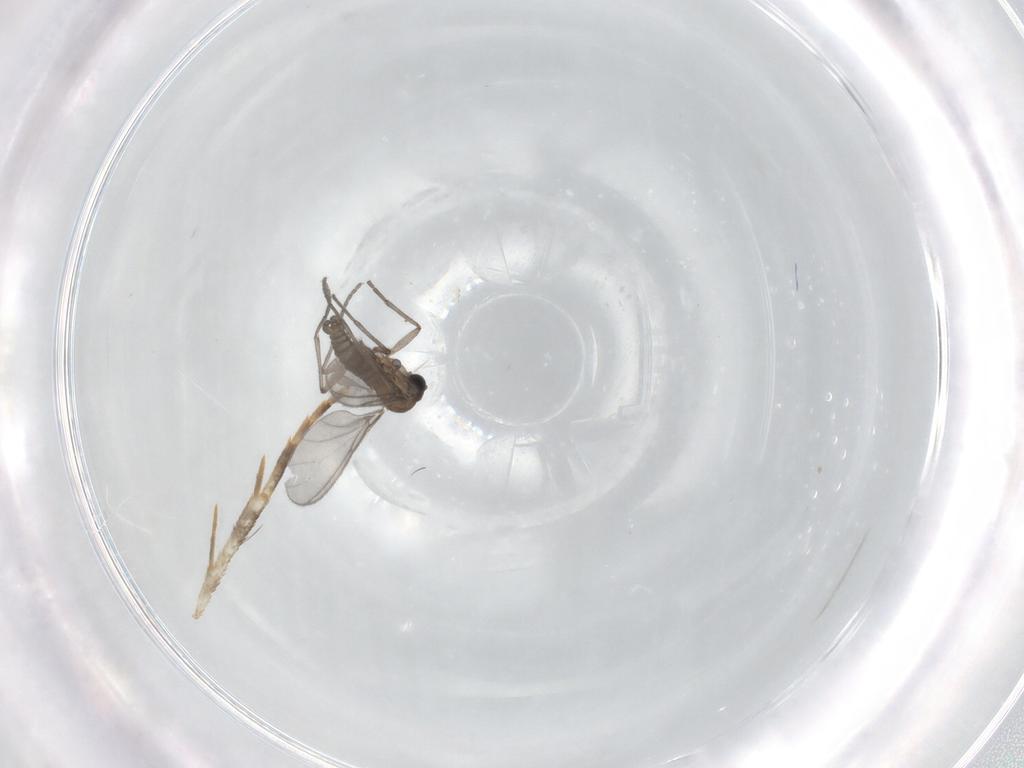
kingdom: Animalia
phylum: Arthropoda
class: Insecta
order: Diptera
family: Sciaridae
